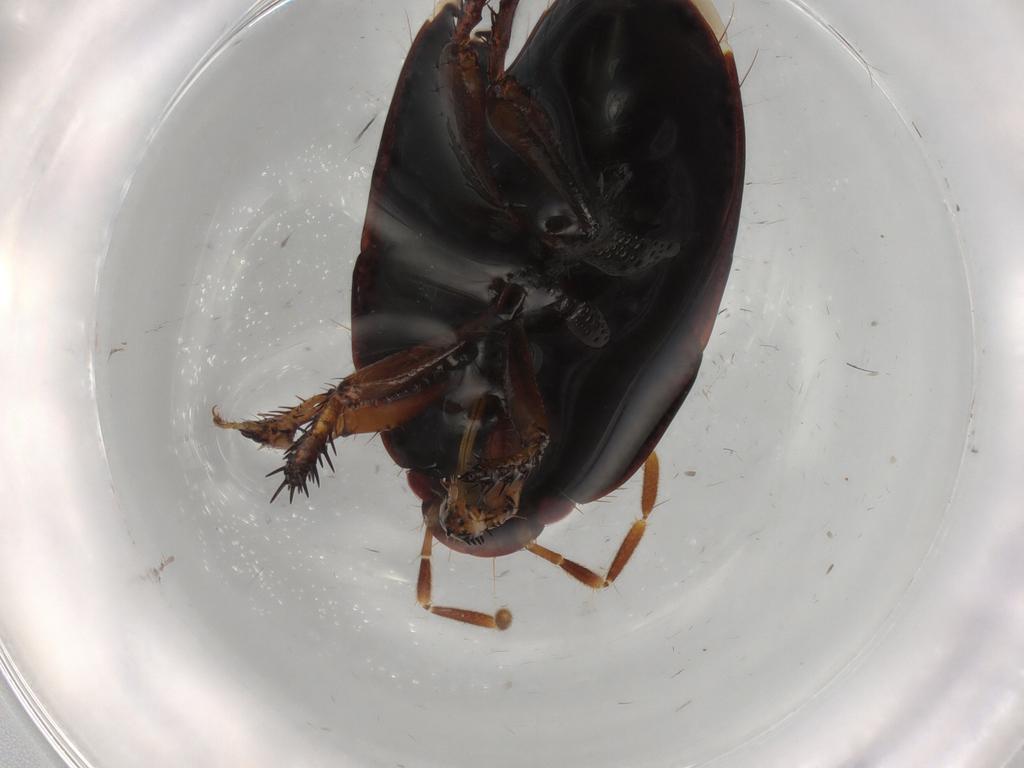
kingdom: Animalia
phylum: Arthropoda
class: Insecta
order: Hemiptera
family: Cydnidae
